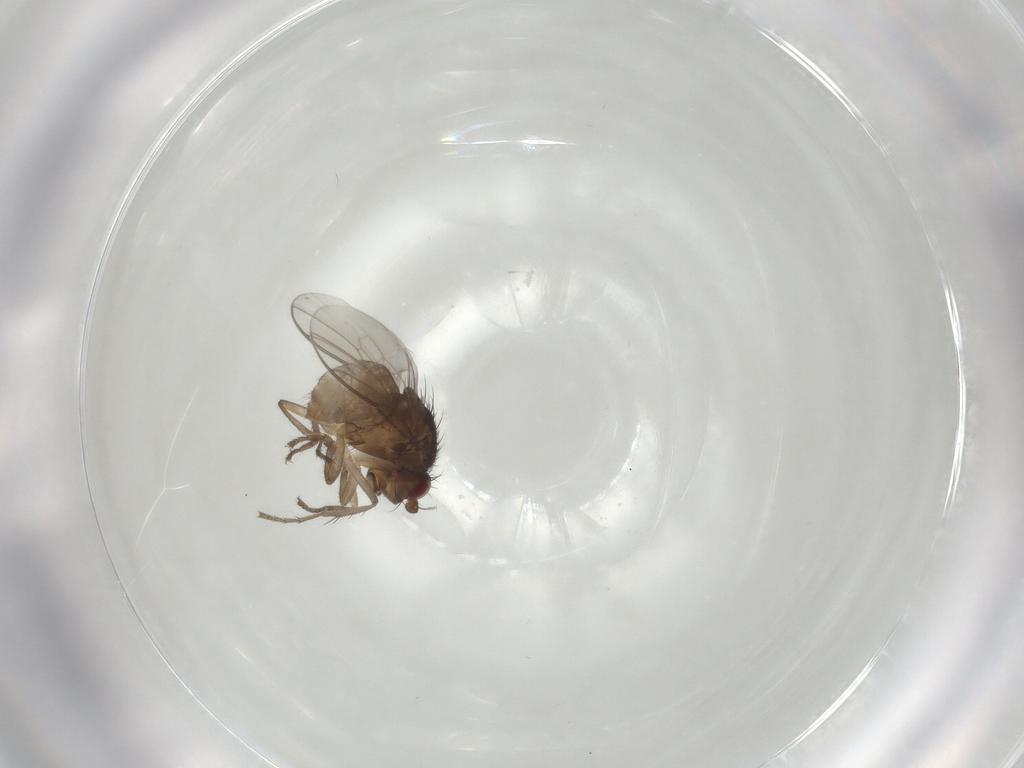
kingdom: Animalia
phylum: Arthropoda
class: Insecta
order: Diptera
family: Sphaeroceridae
